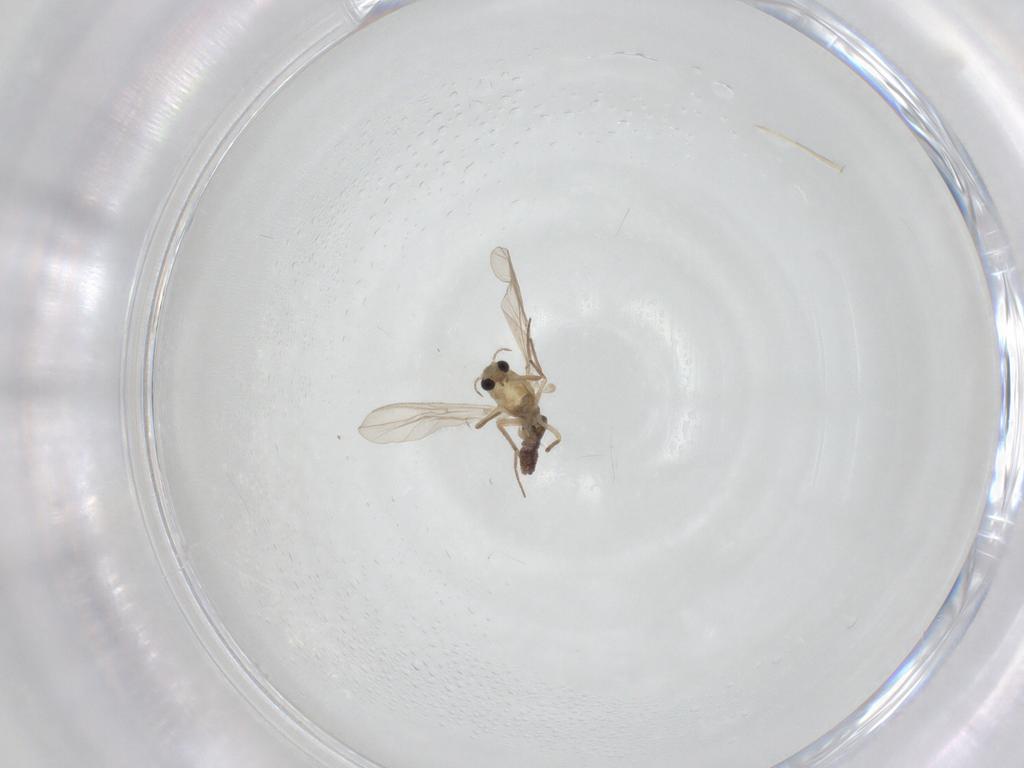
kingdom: Animalia
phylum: Arthropoda
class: Insecta
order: Diptera
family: Chironomidae
